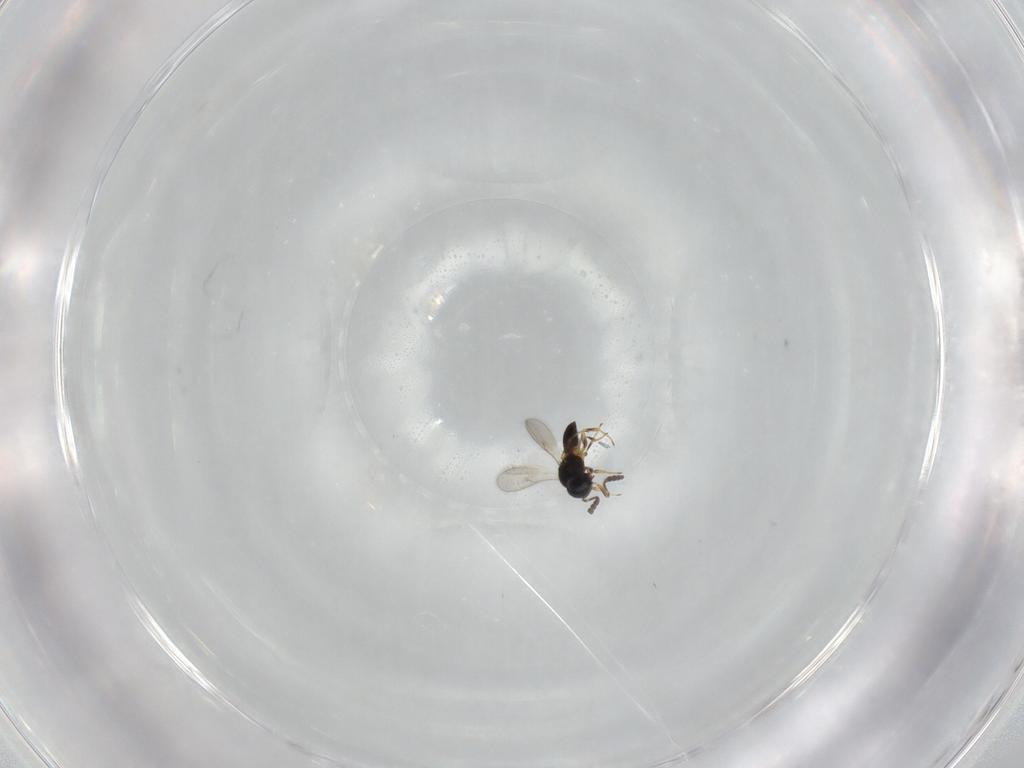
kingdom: Animalia
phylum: Arthropoda
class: Insecta
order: Hymenoptera
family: Scelionidae
